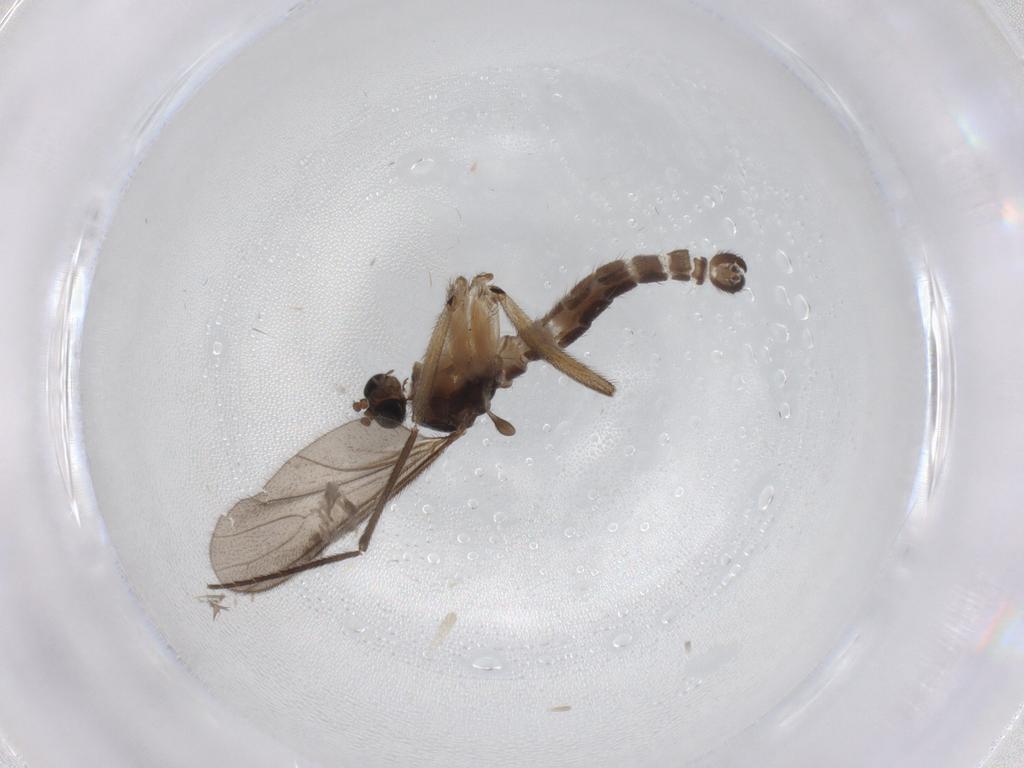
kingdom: Animalia
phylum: Arthropoda
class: Insecta
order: Diptera
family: Sciaridae
